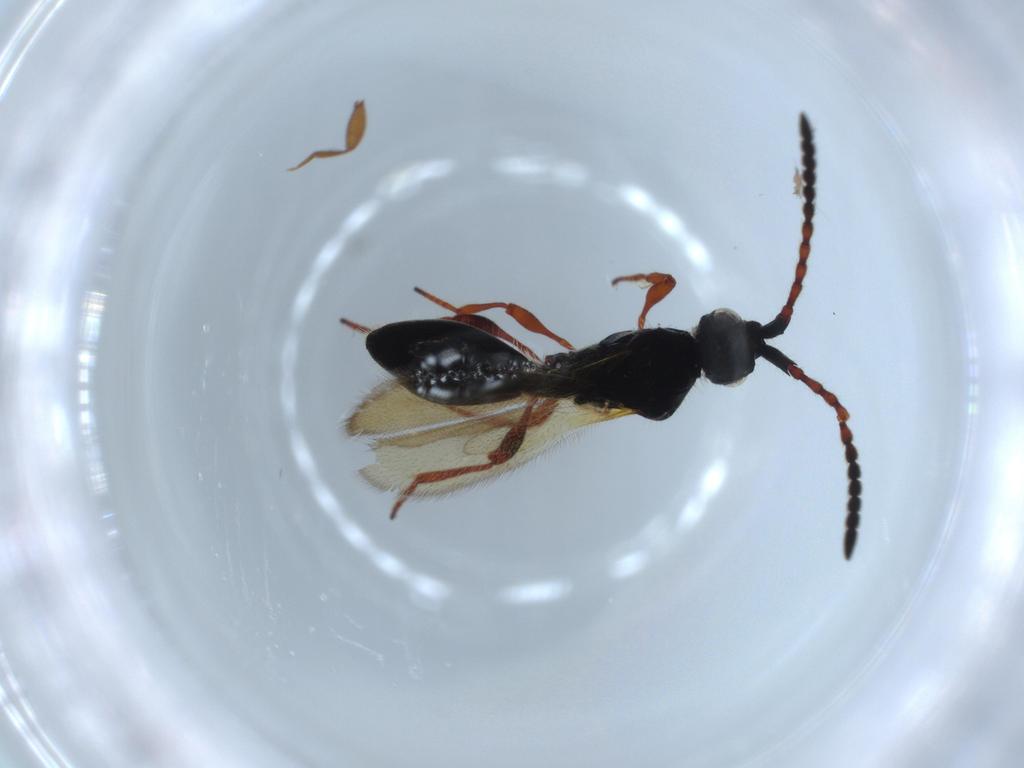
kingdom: Animalia
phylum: Arthropoda
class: Insecta
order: Hymenoptera
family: Diapriidae
